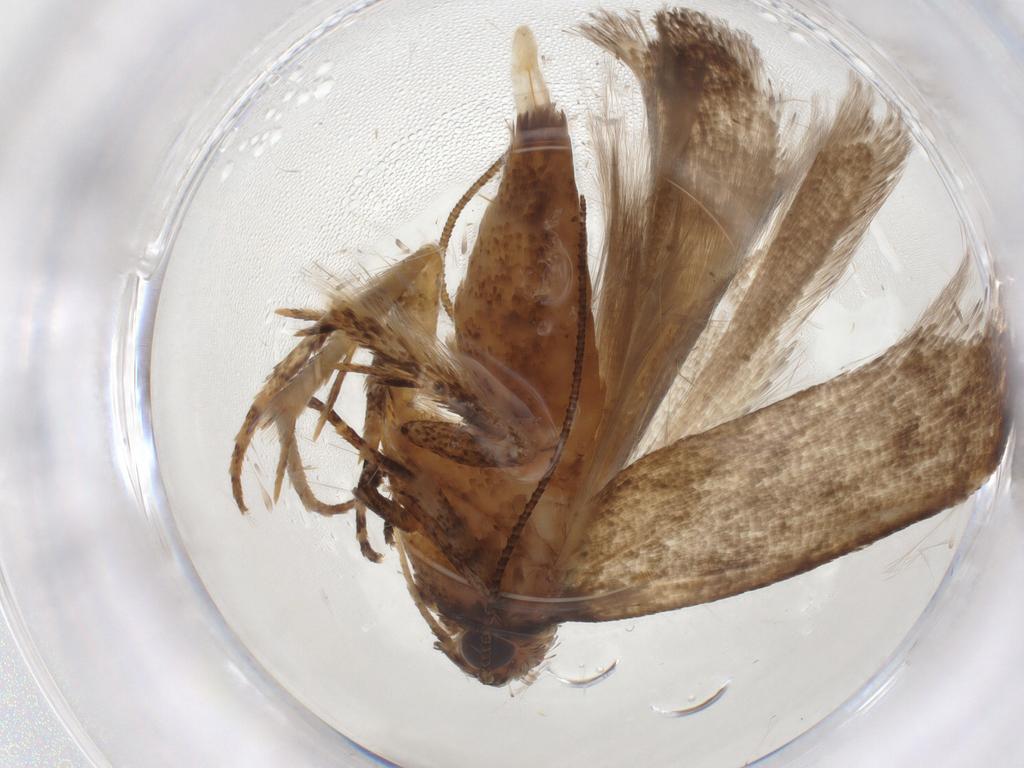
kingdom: Animalia
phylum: Arthropoda
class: Insecta
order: Lepidoptera
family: Gelechiidae
